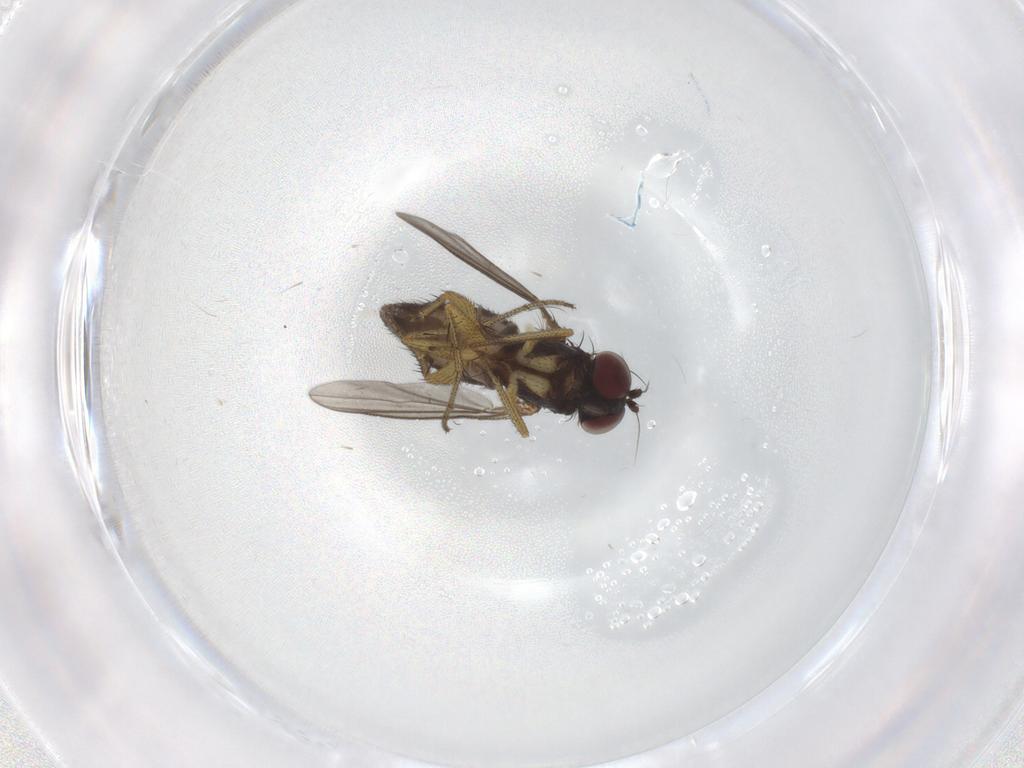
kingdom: Animalia
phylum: Arthropoda
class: Insecta
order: Diptera
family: Dolichopodidae
